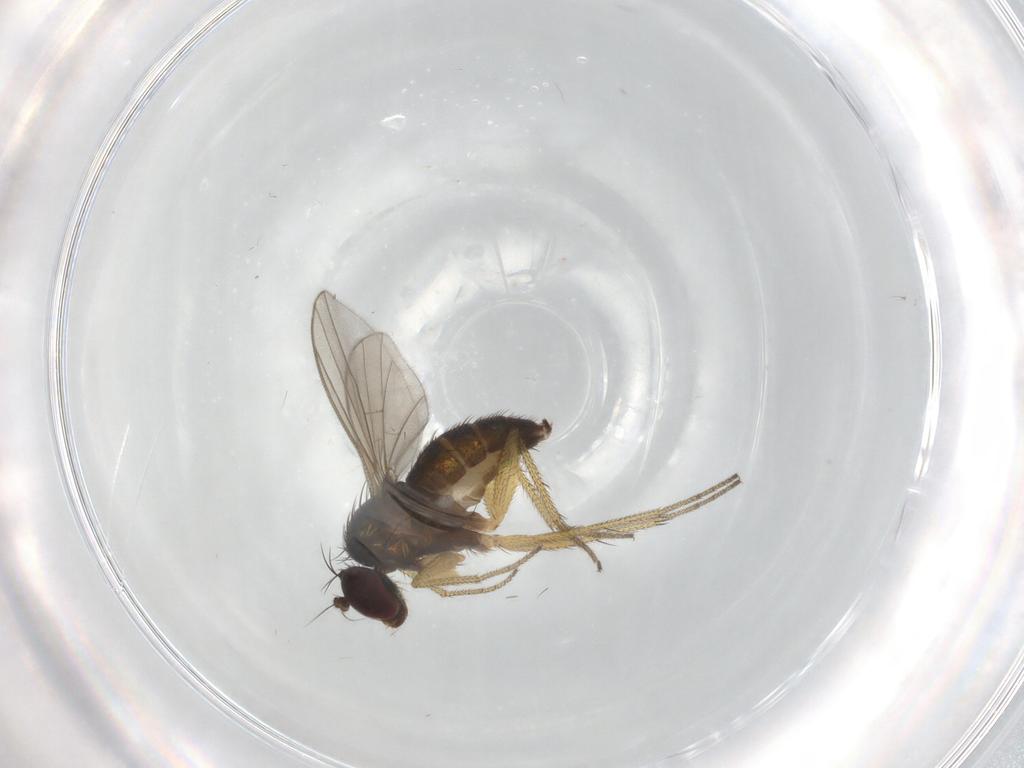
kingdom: Animalia
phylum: Arthropoda
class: Insecta
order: Diptera
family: Dolichopodidae
